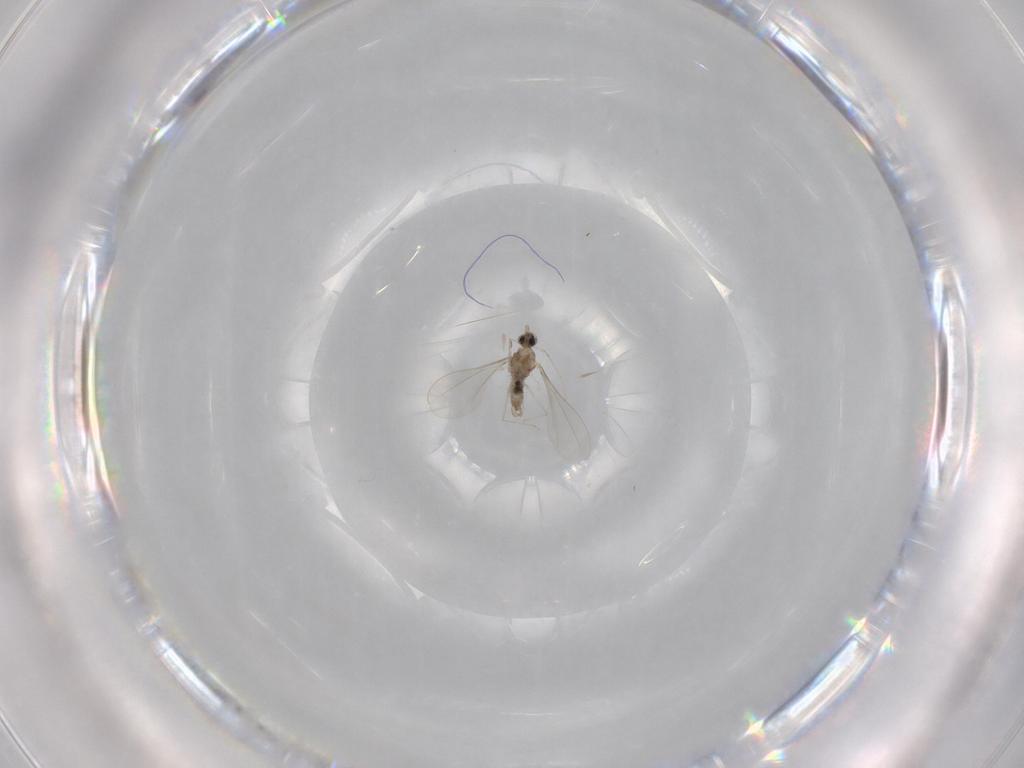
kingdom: Animalia
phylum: Arthropoda
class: Insecta
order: Diptera
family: Cecidomyiidae
